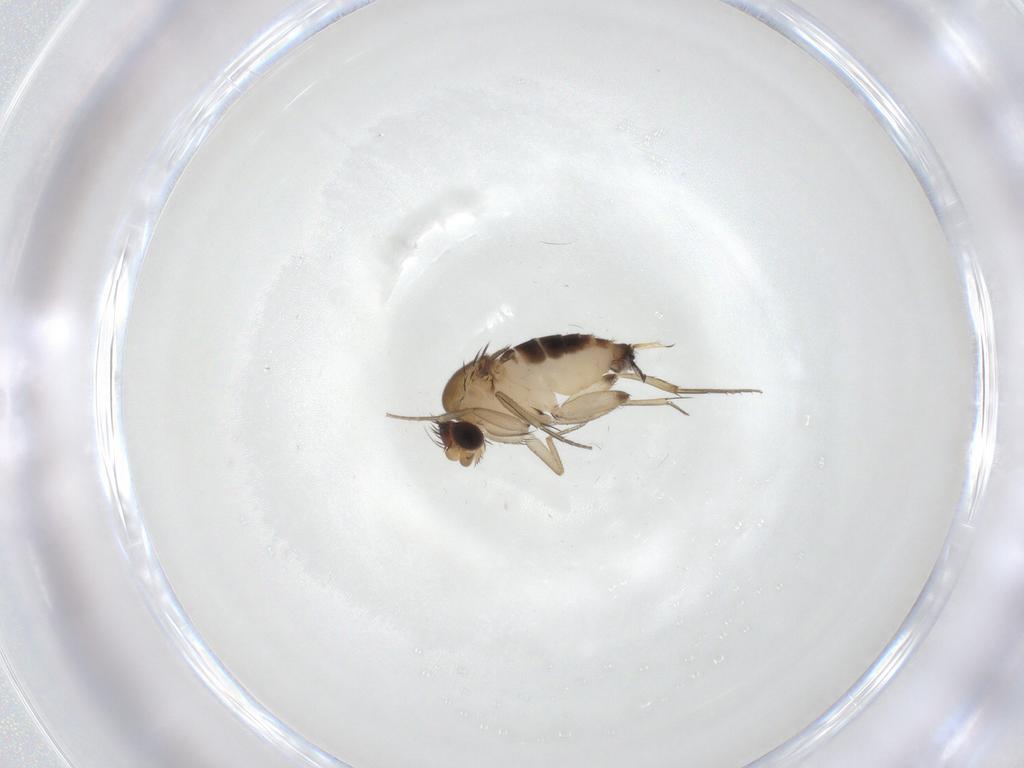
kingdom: Animalia
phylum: Arthropoda
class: Insecta
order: Diptera
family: Phoridae
